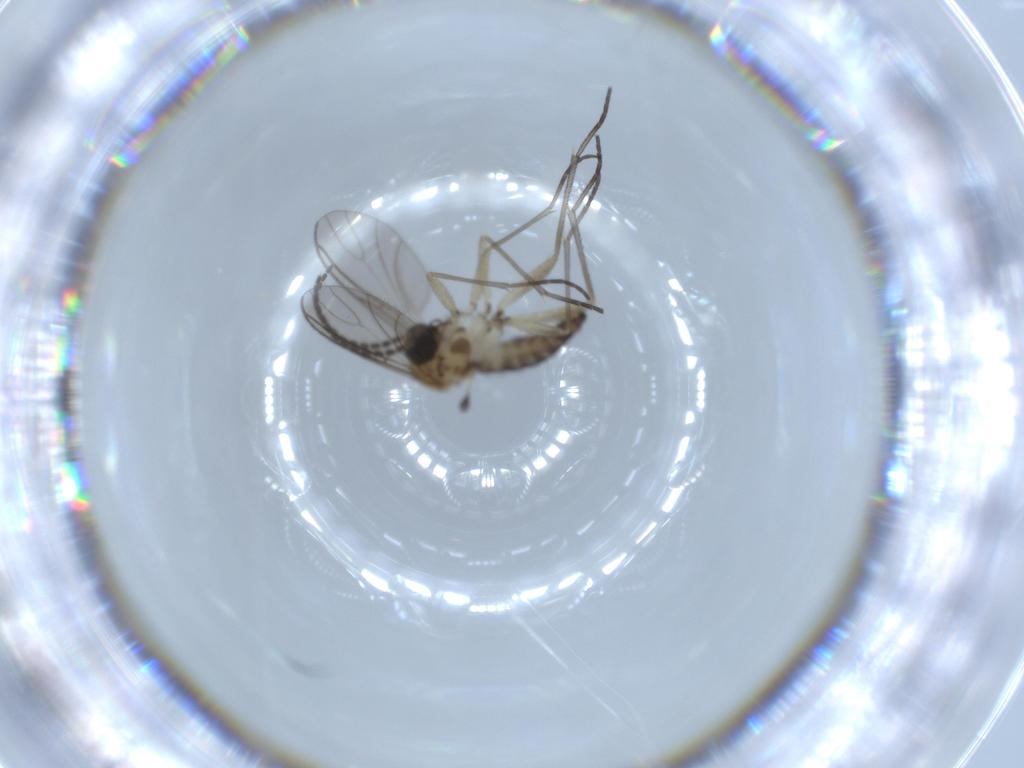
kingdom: Animalia
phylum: Arthropoda
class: Insecta
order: Diptera
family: Sciaridae
